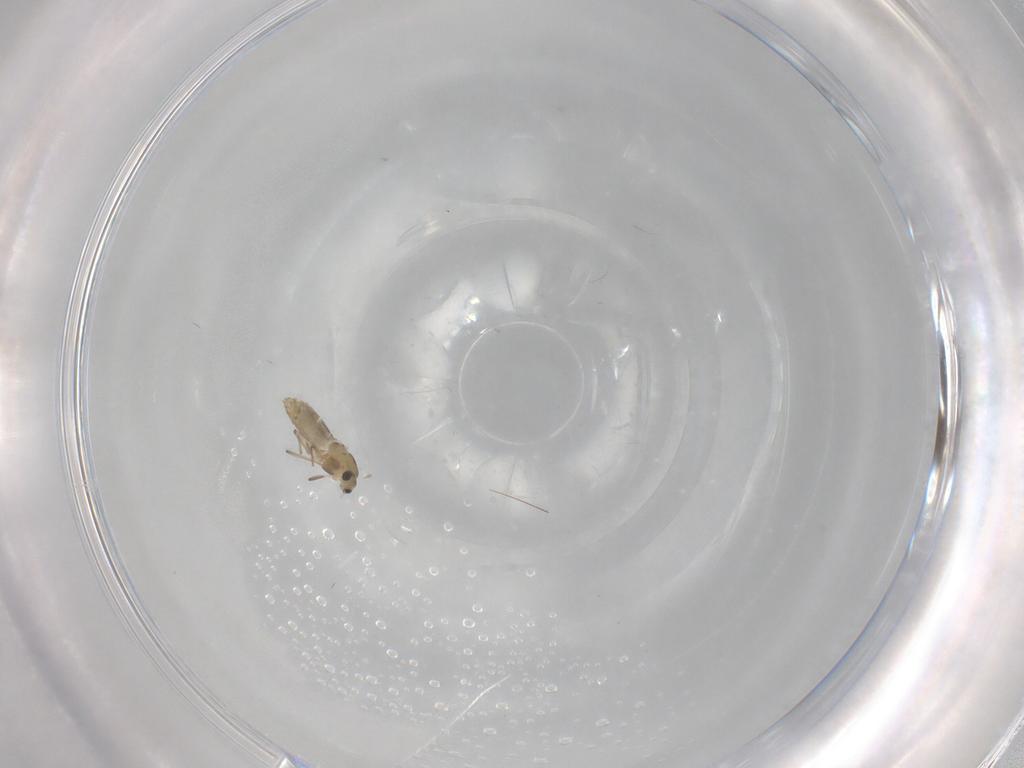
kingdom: Animalia
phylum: Arthropoda
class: Insecta
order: Diptera
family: Chironomidae
